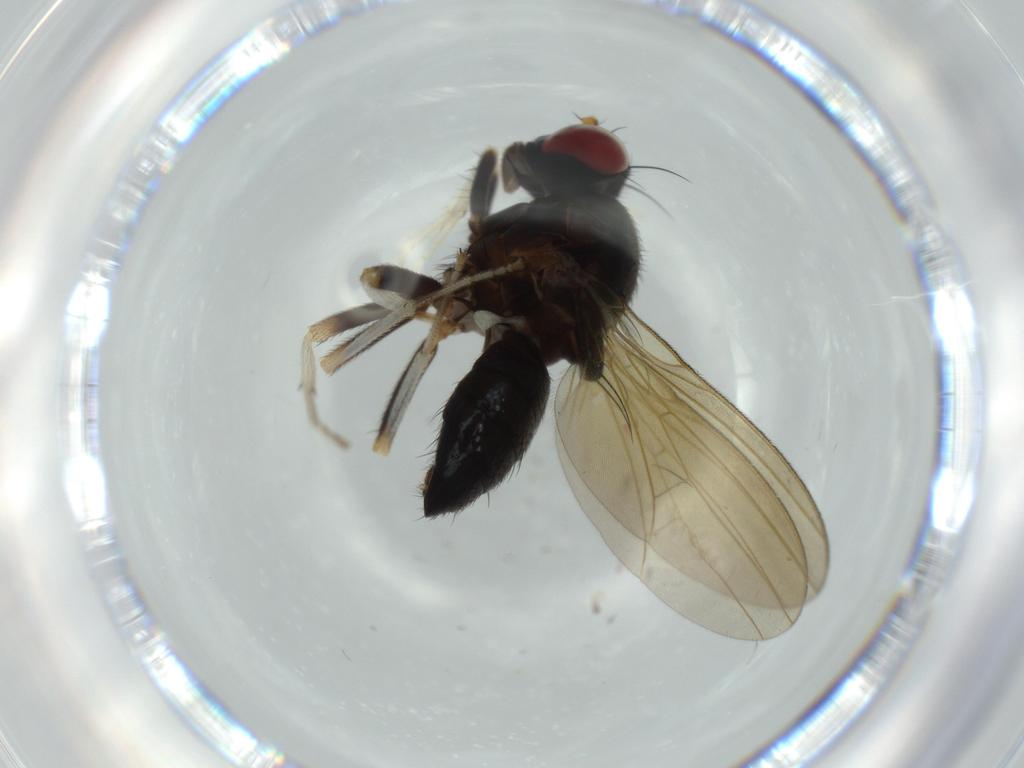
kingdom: Animalia
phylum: Arthropoda
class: Insecta
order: Diptera
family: Lauxaniidae
